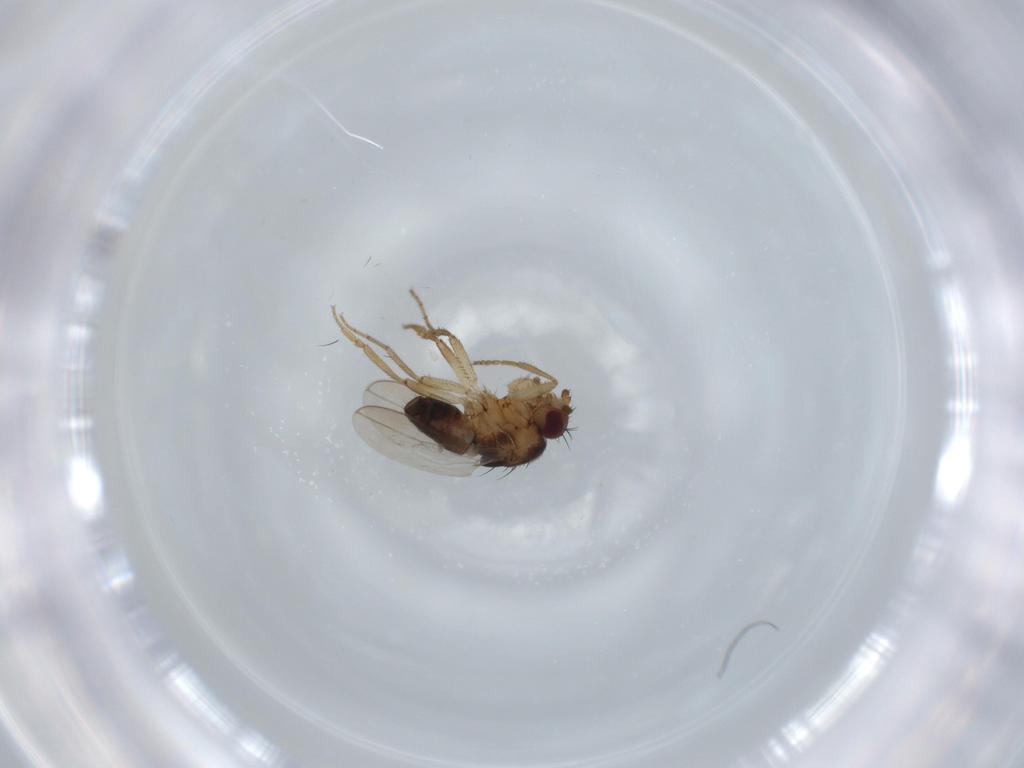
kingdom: Animalia
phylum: Arthropoda
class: Insecta
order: Diptera
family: Sphaeroceridae
